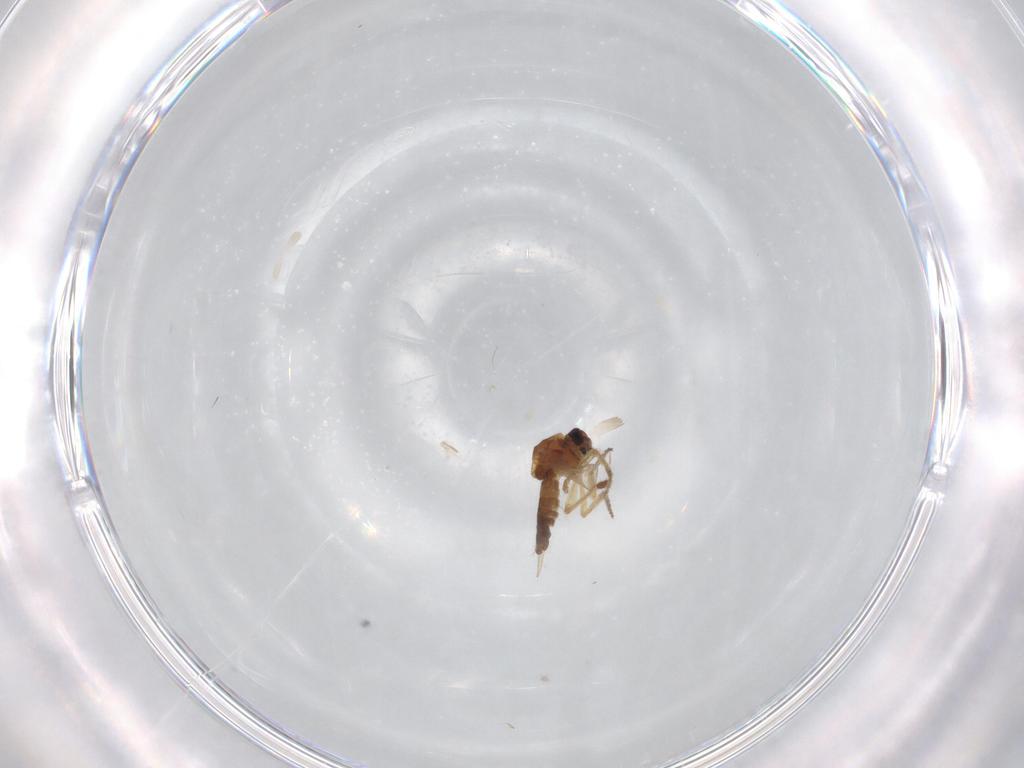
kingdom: Animalia
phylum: Arthropoda
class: Insecta
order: Diptera
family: Ceratopogonidae
